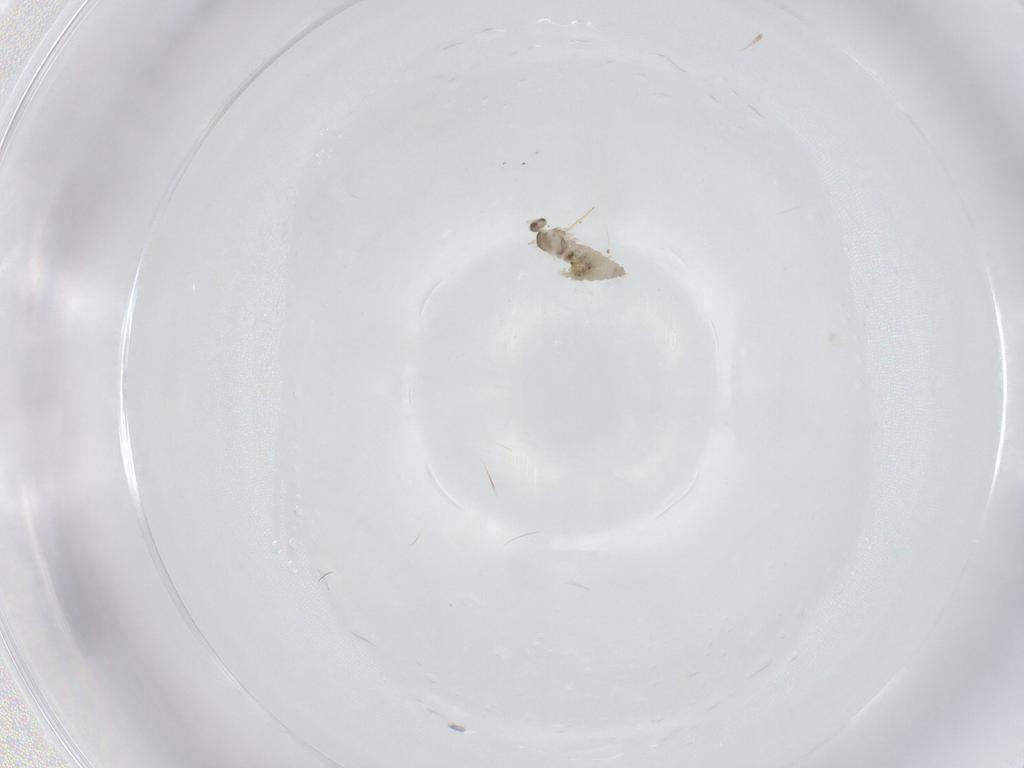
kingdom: Animalia
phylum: Arthropoda
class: Insecta
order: Diptera
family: Cecidomyiidae
